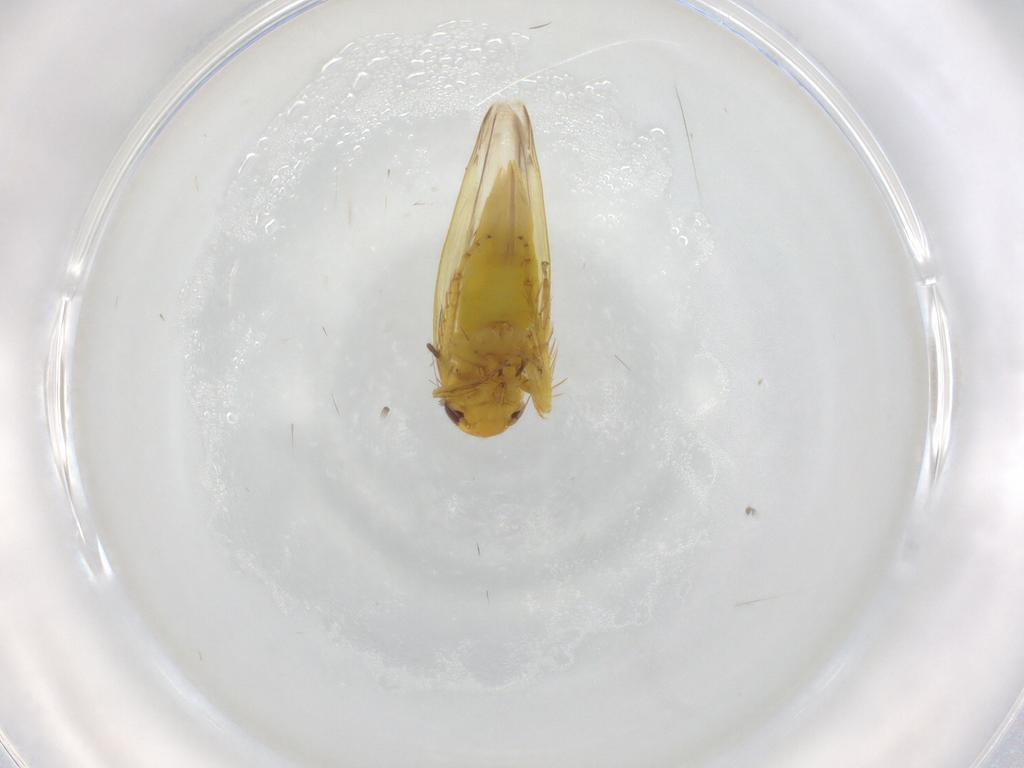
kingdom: Animalia
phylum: Arthropoda
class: Insecta
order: Hemiptera
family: Cicadellidae
